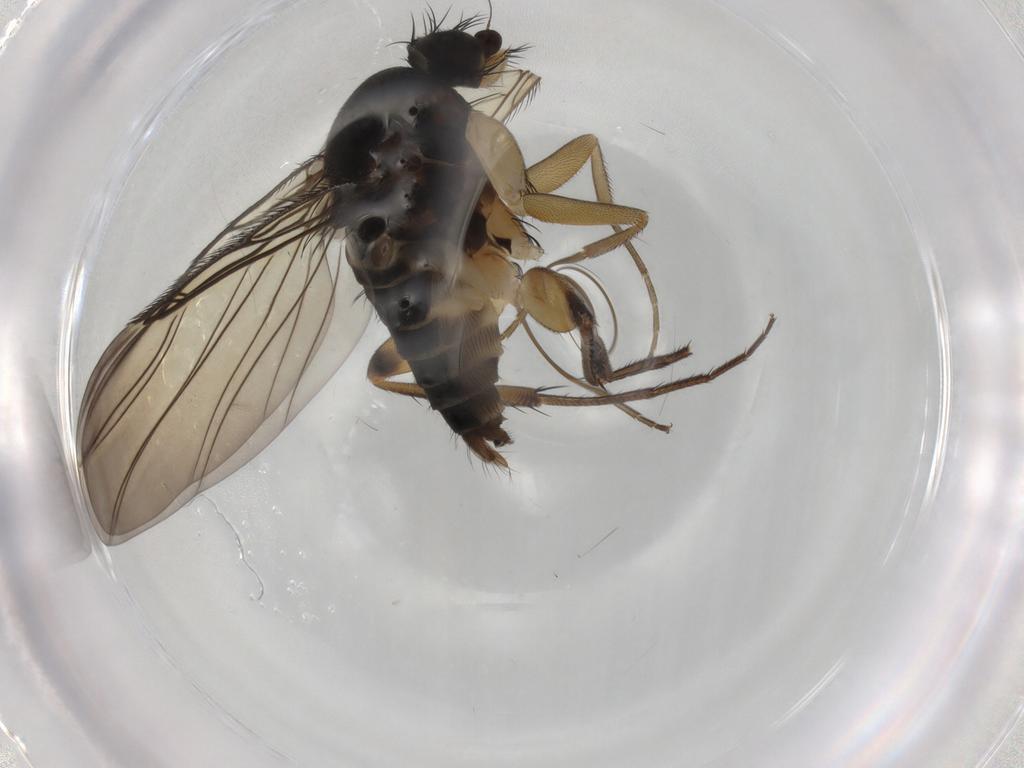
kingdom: Animalia
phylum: Arthropoda
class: Insecta
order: Diptera
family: Phoridae
